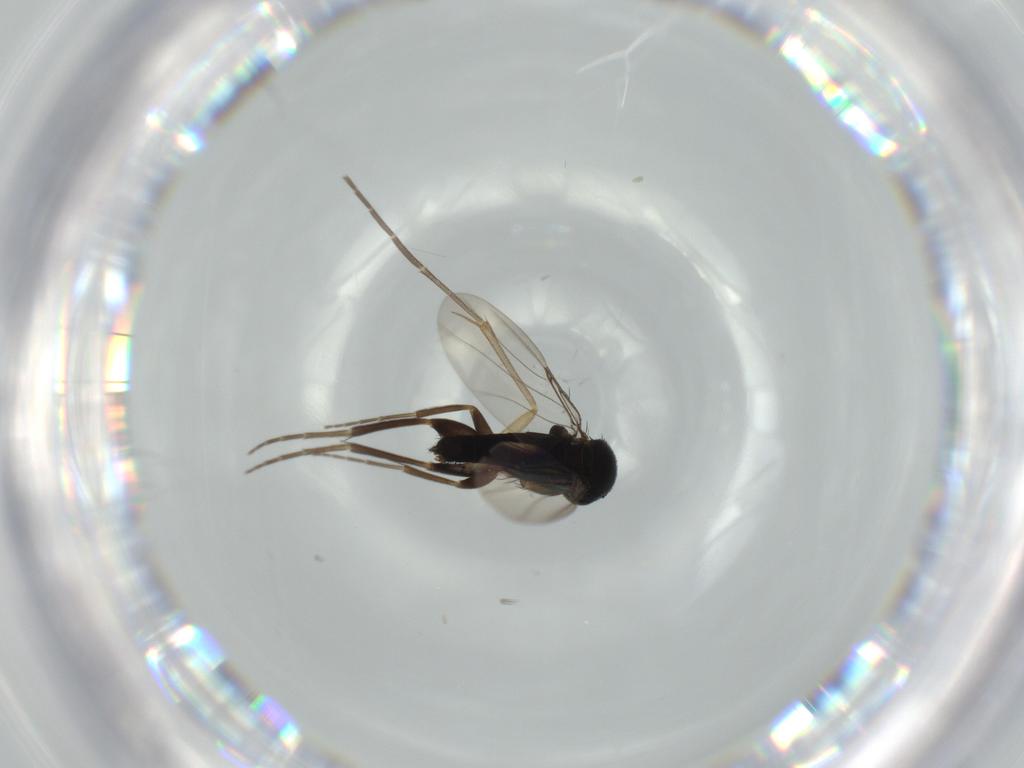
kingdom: Animalia
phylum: Arthropoda
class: Insecta
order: Diptera
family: Phoridae
